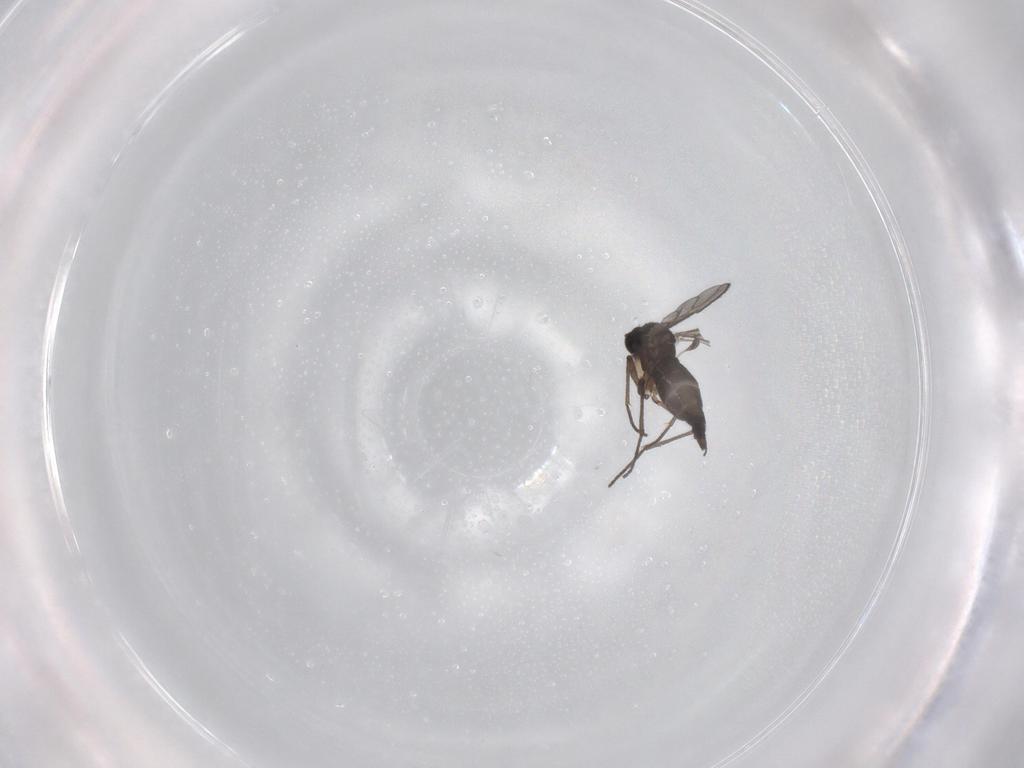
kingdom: Animalia
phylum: Arthropoda
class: Insecta
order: Diptera
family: Sciaridae
